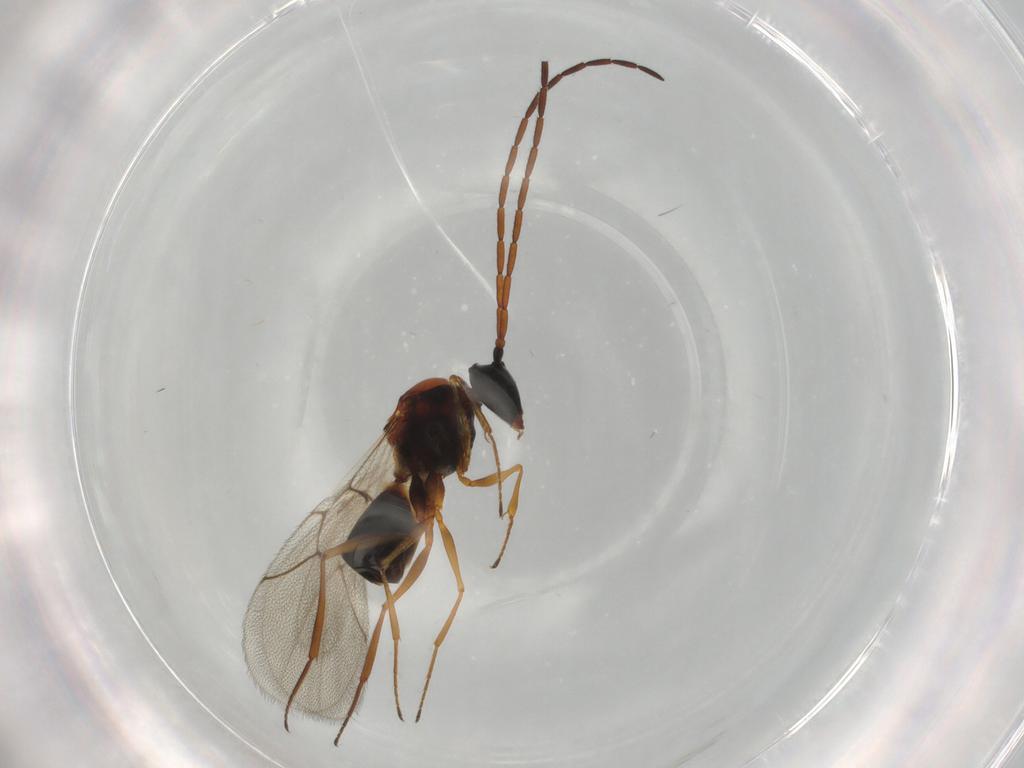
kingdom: Animalia
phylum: Arthropoda
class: Insecta
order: Hymenoptera
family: Figitidae
